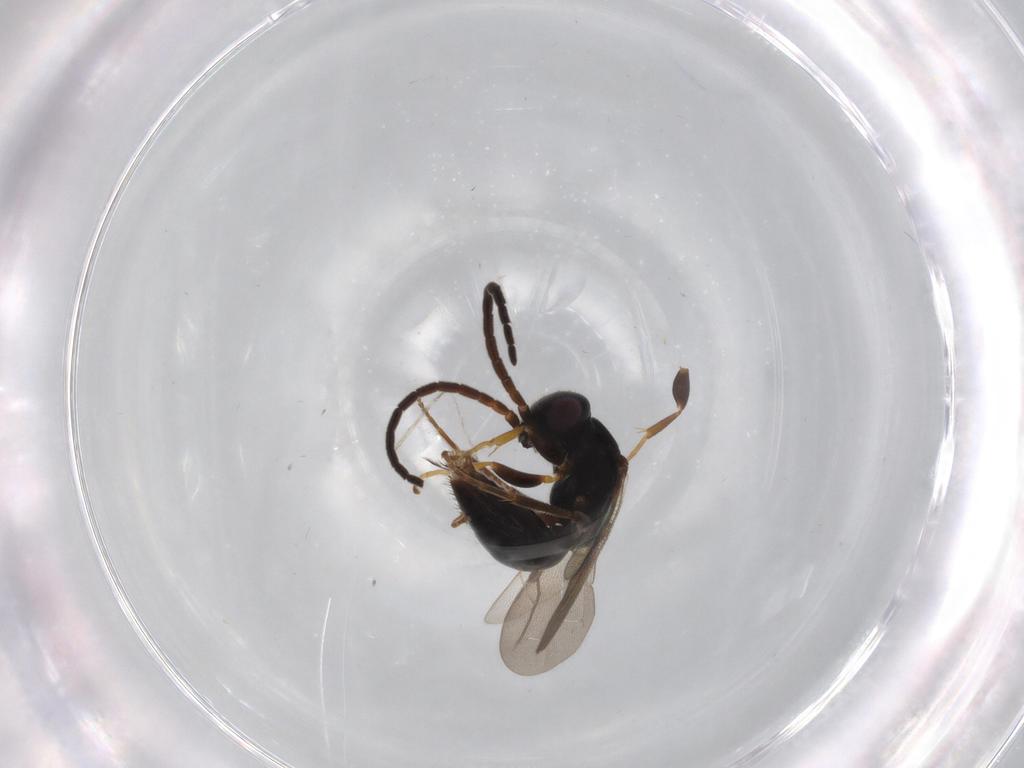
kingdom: Animalia
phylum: Arthropoda
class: Insecta
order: Hymenoptera
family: Bethylidae
